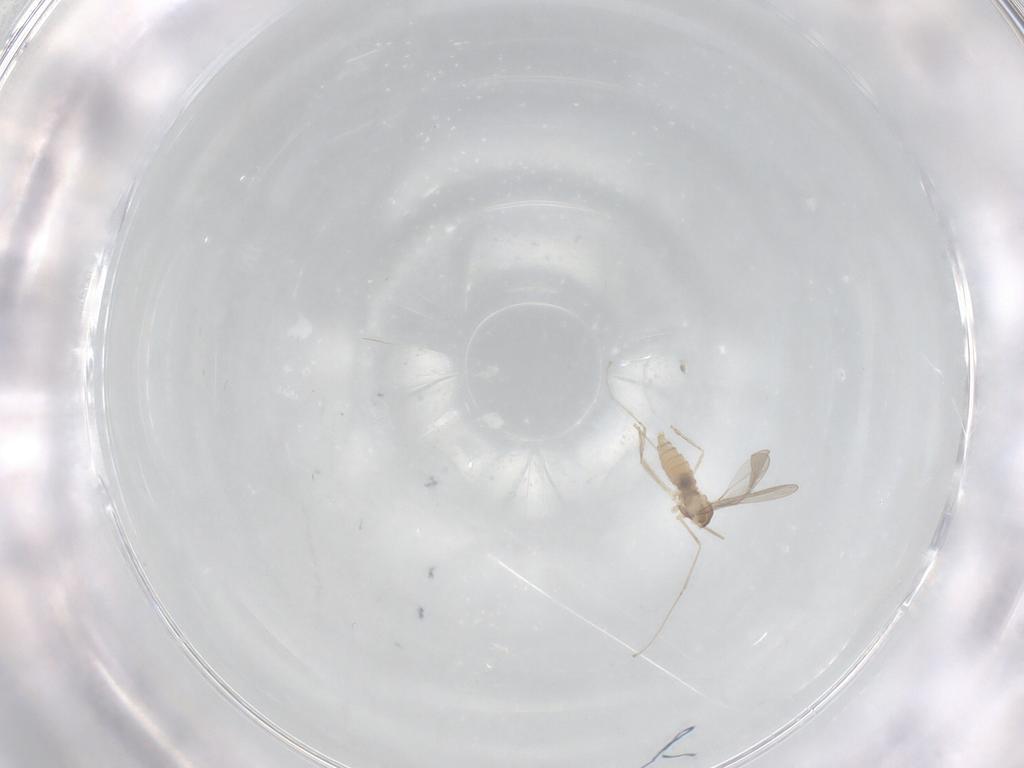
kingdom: Animalia
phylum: Arthropoda
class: Insecta
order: Diptera
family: Cecidomyiidae
